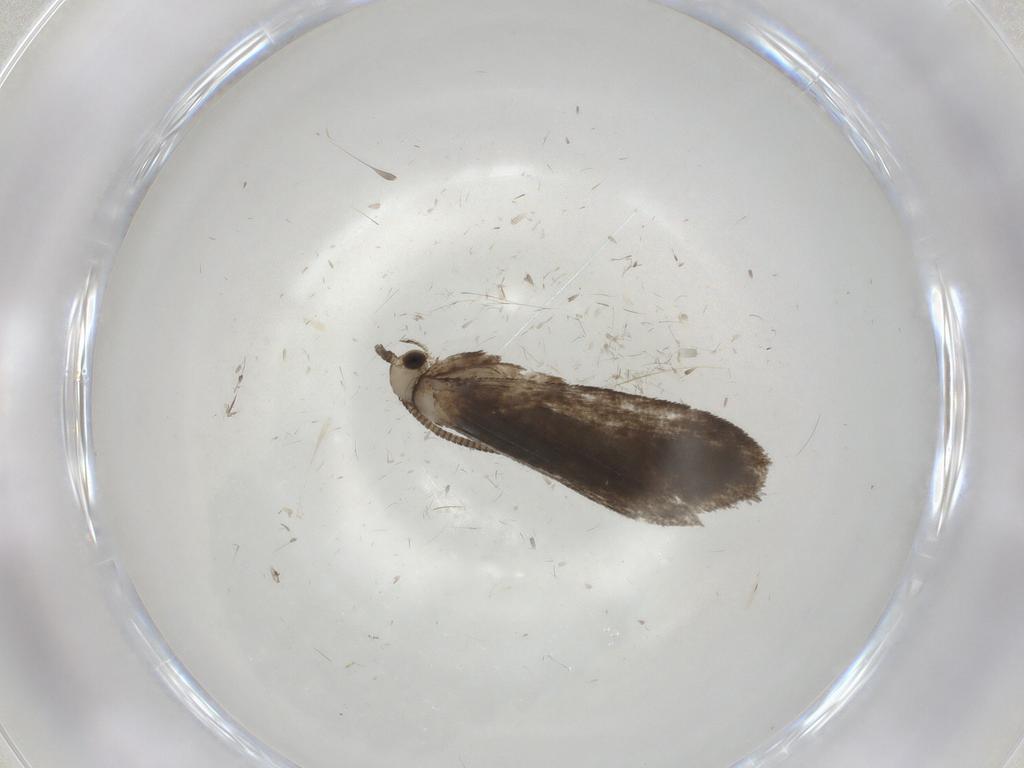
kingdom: Animalia
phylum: Arthropoda
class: Insecta
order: Lepidoptera
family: Nymphalidae
